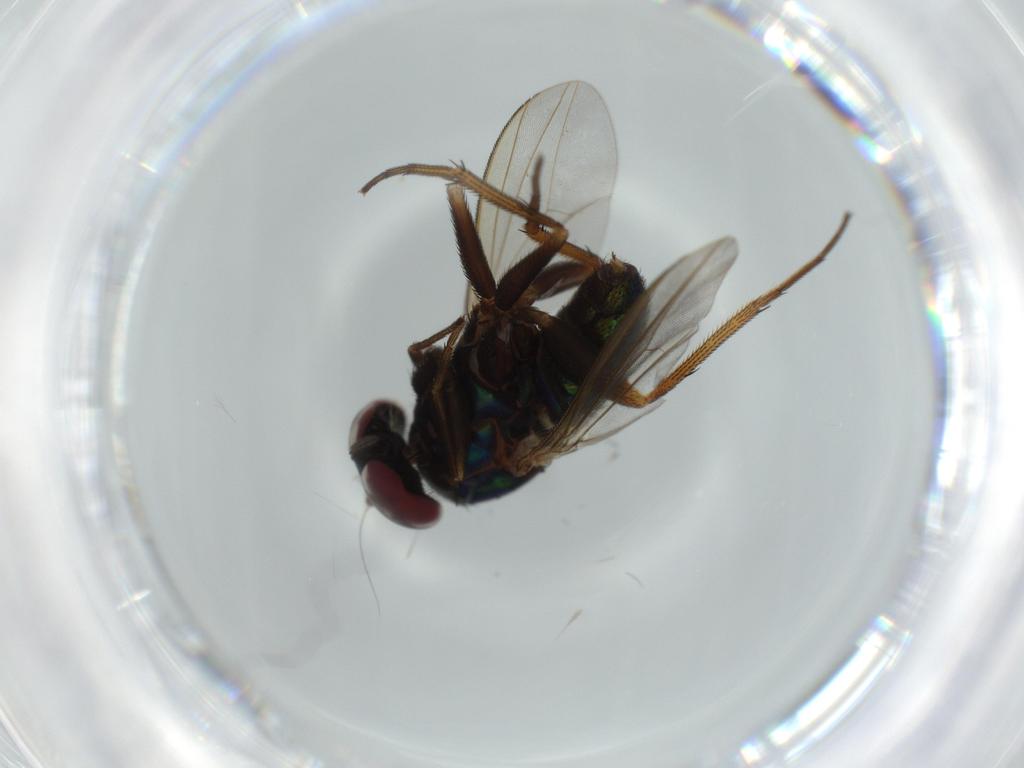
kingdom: Animalia
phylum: Arthropoda
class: Insecta
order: Diptera
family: Dolichopodidae
